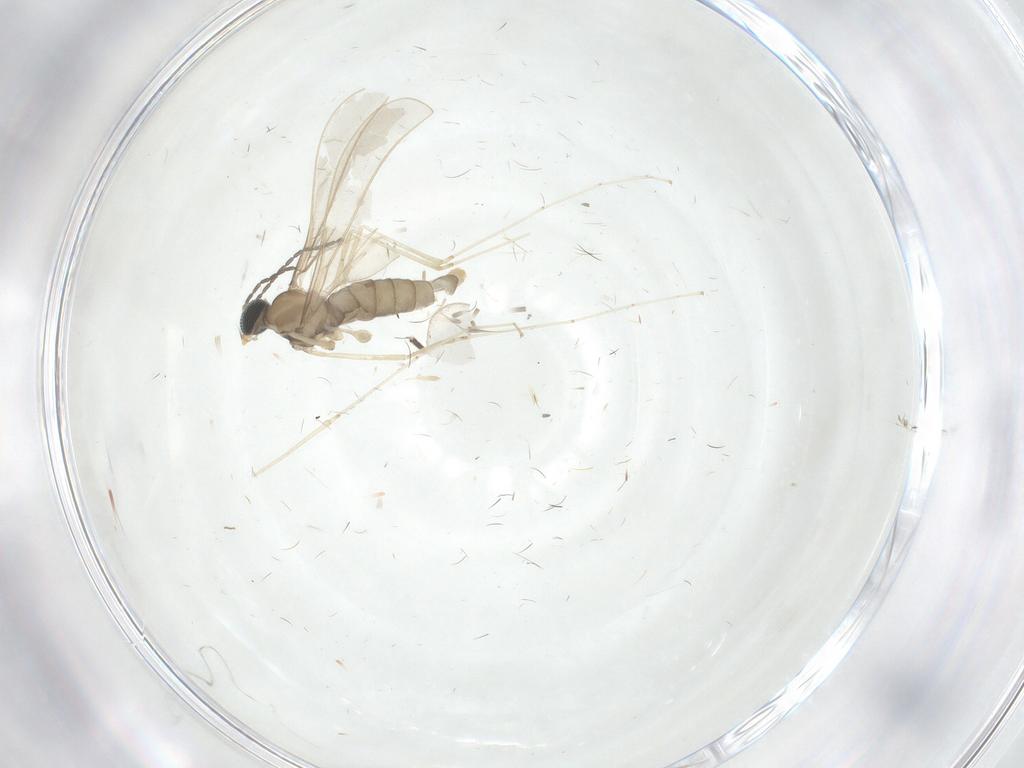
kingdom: Animalia
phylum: Arthropoda
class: Insecta
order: Diptera
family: Cecidomyiidae
